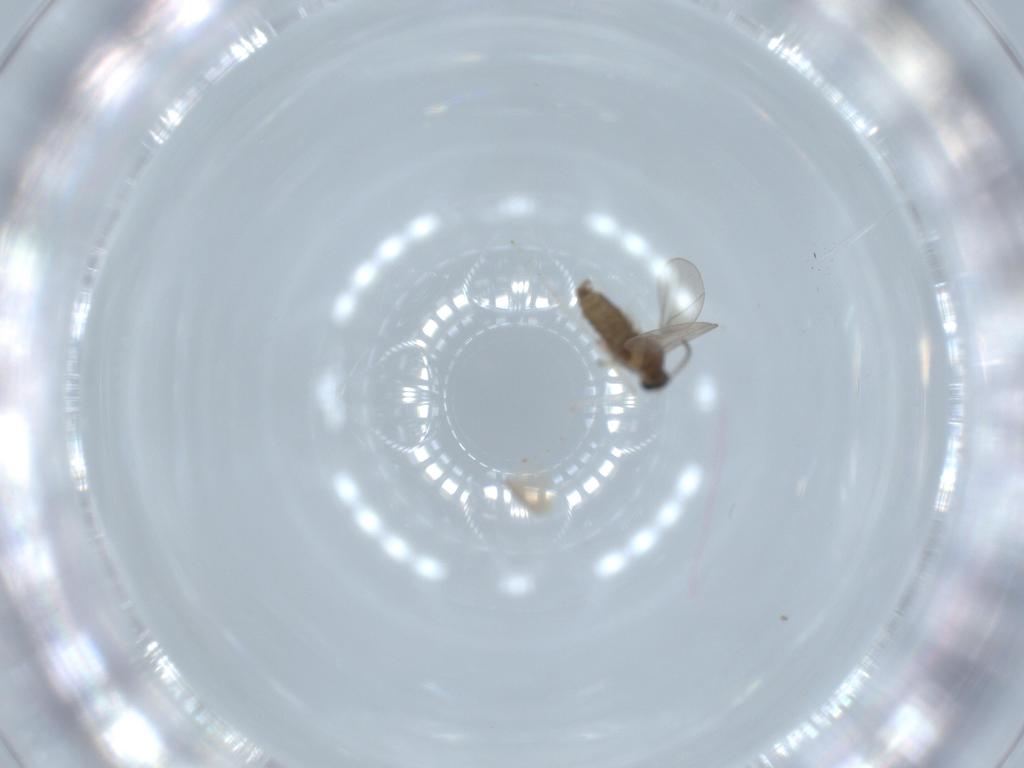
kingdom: Animalia
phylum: Arthropoda
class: Insecta
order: Diptera
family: Cecidomyiidae
